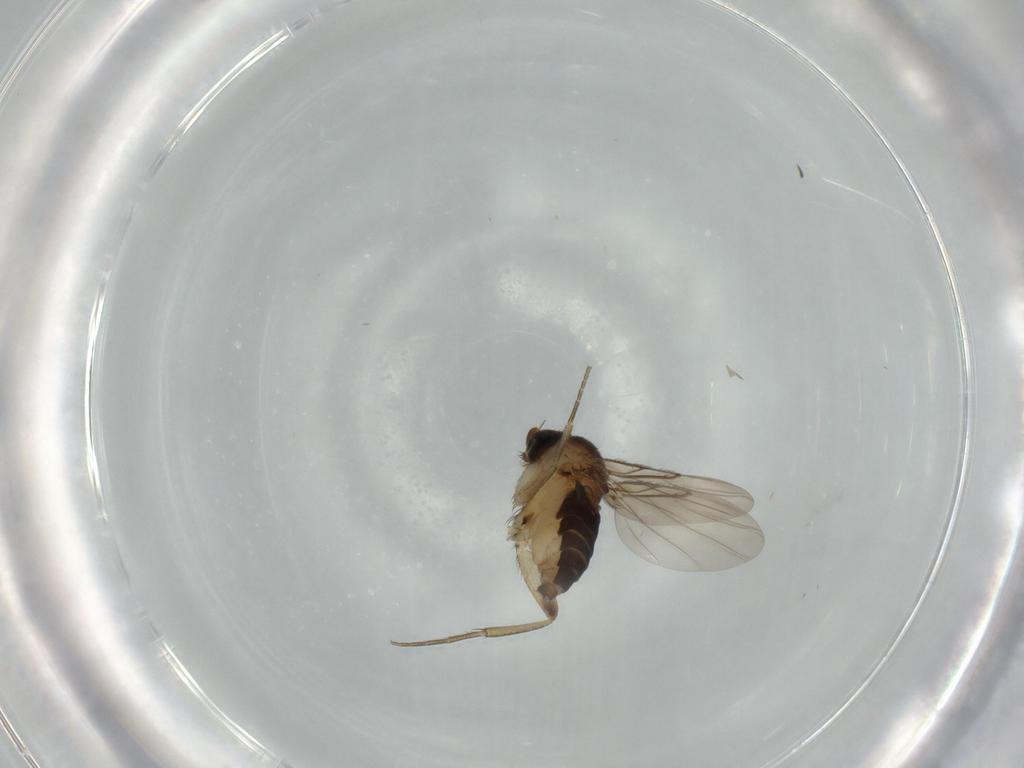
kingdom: Animalia
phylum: Arthropoda
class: Insecta
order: Diptera
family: Phoridae
